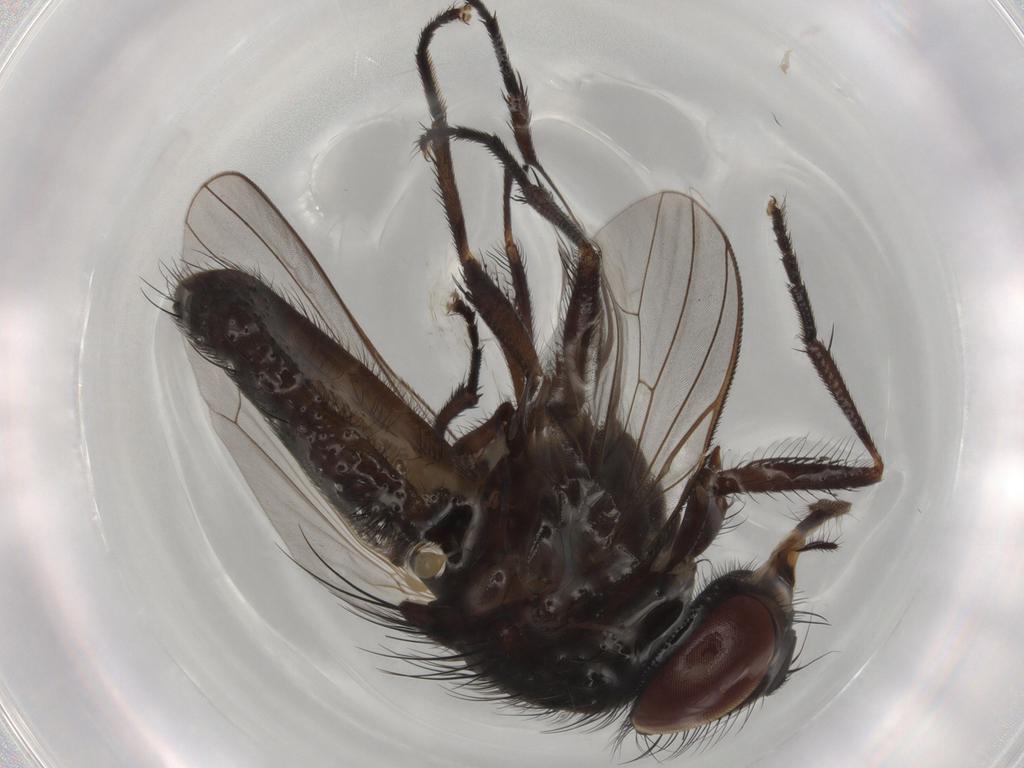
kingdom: Animalia
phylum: Arthropoda
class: Insecta
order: Diptera
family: Fannia
